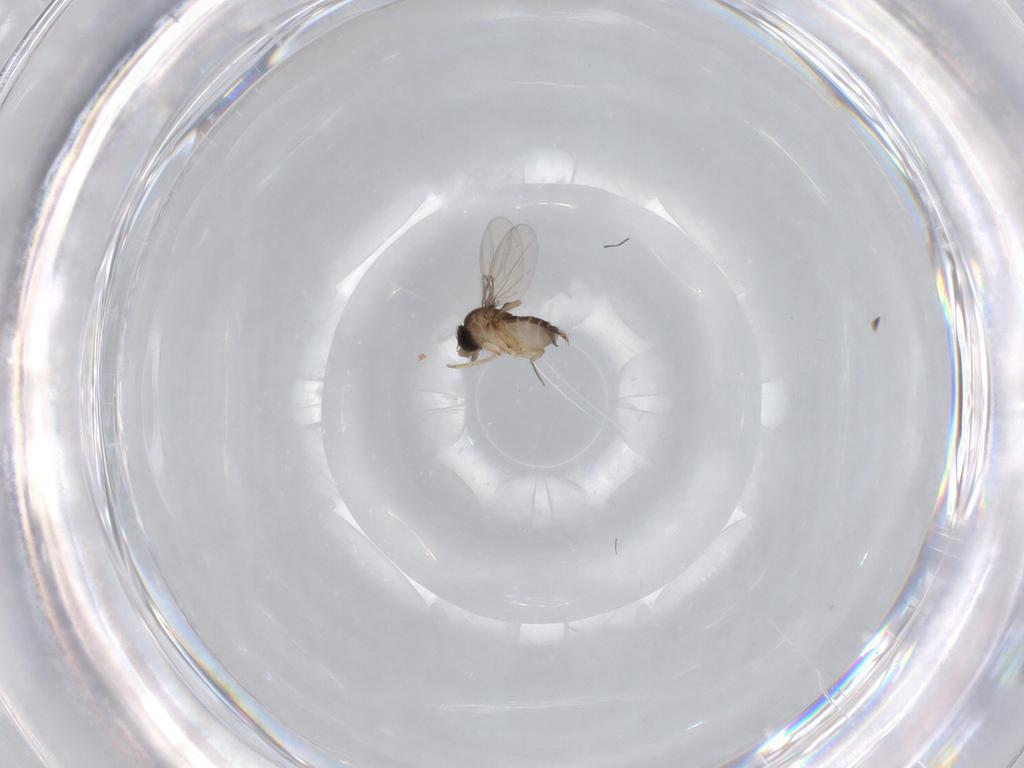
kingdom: Animalia
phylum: Arthropoda
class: Insecta
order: Diptera
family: Phoridae
